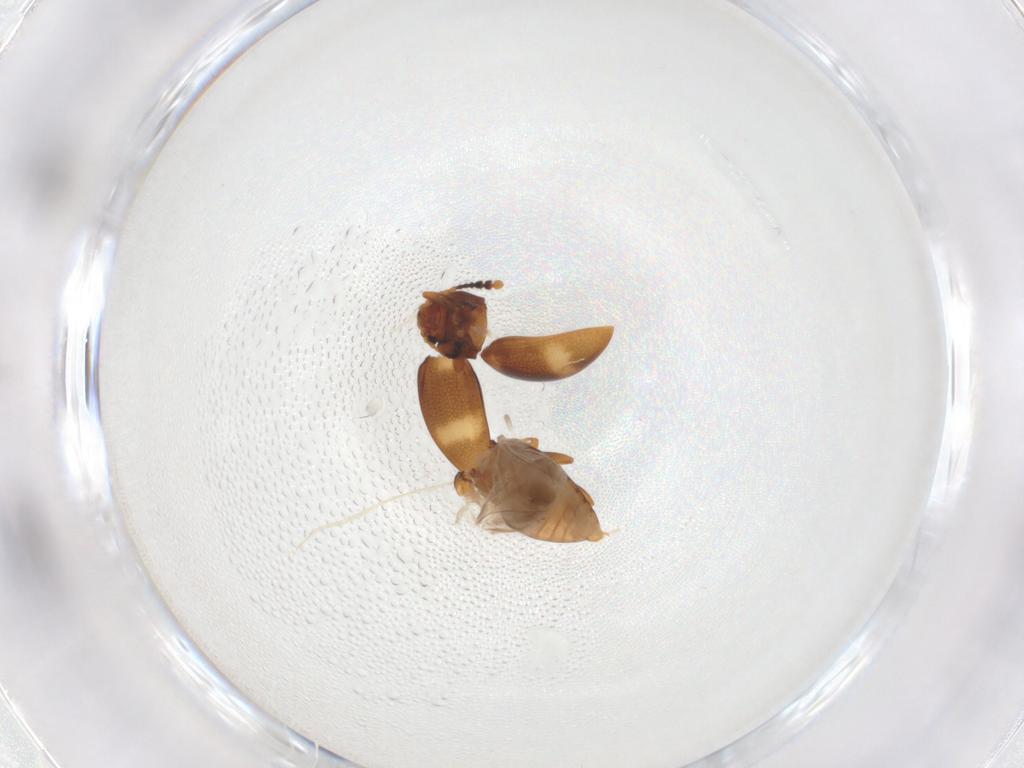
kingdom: Animalia
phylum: Arthropoda
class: Insecta
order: Coleoptera
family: Erotylidae
